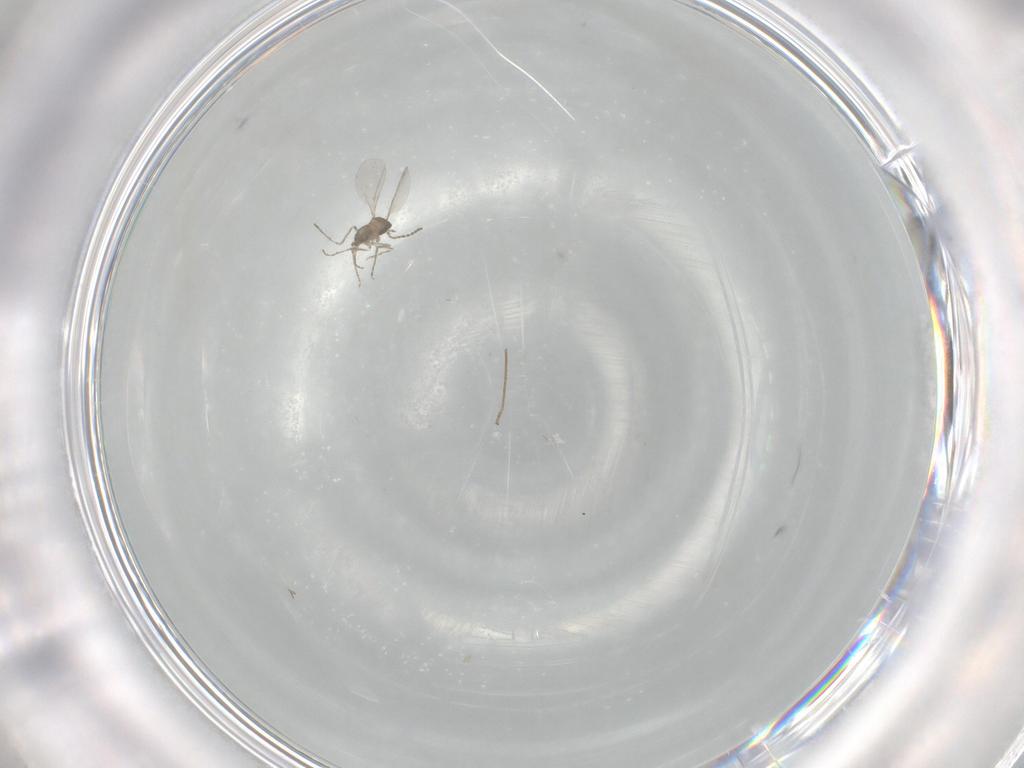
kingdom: Animalia
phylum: Arthropoda
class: Insecta
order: Diptera
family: Cecidomyiidae
